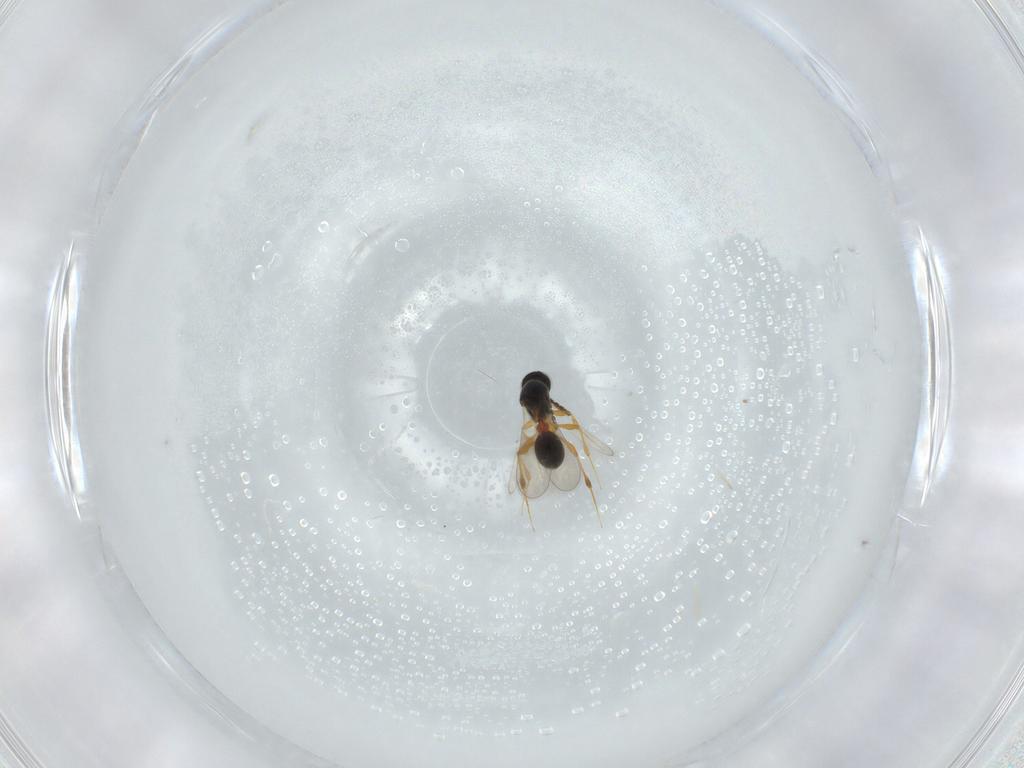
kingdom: Animalia
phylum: Arthropoda
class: Insecta
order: Hymenoptera
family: Platygastridae
